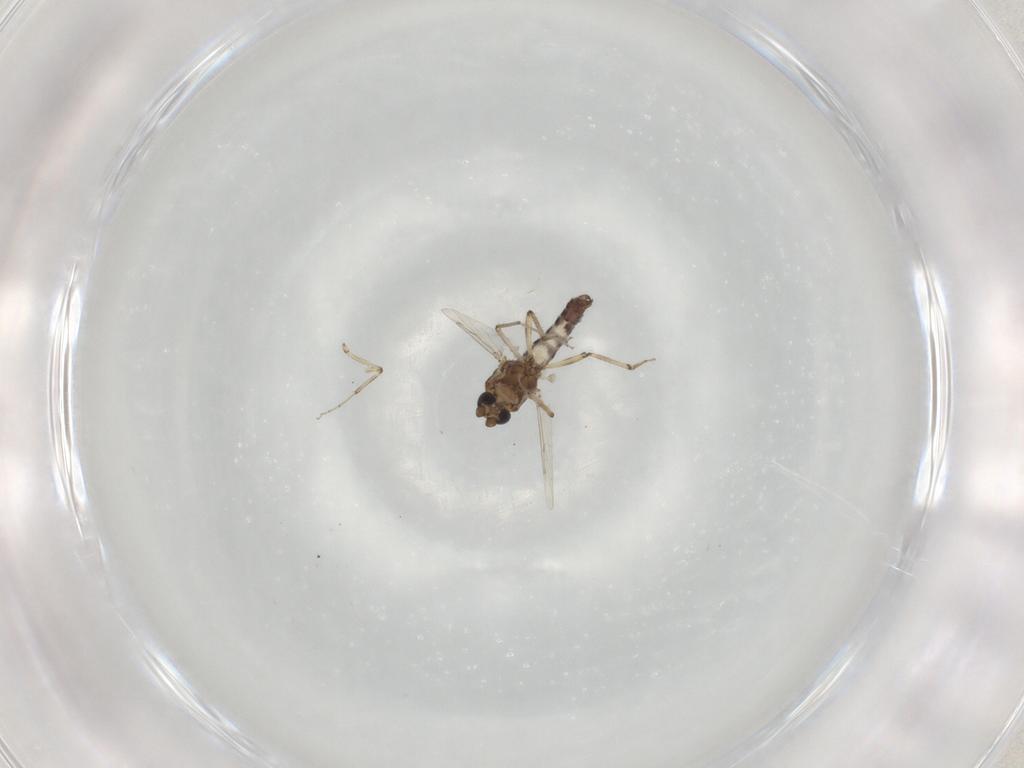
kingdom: Animalia
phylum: Arthropoda
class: Insecta
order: Diptera
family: Ceratopogonidae
